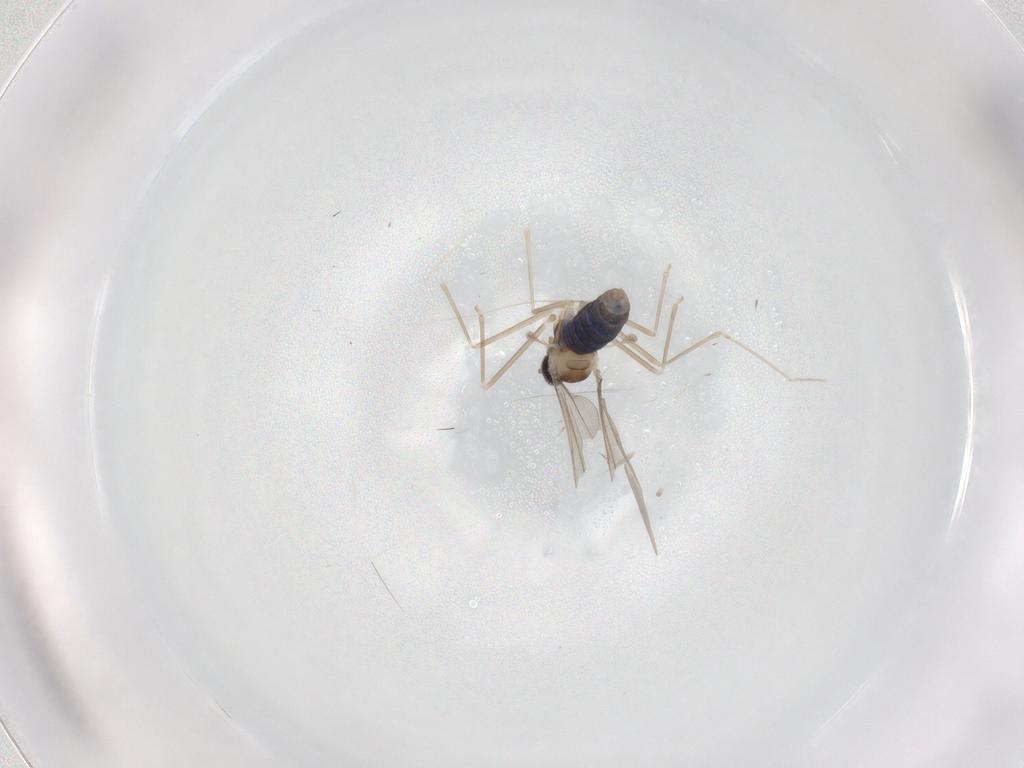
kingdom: Animalia
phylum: Arthropoda
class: Insecta
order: Diptera
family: Cecidomyiidae
